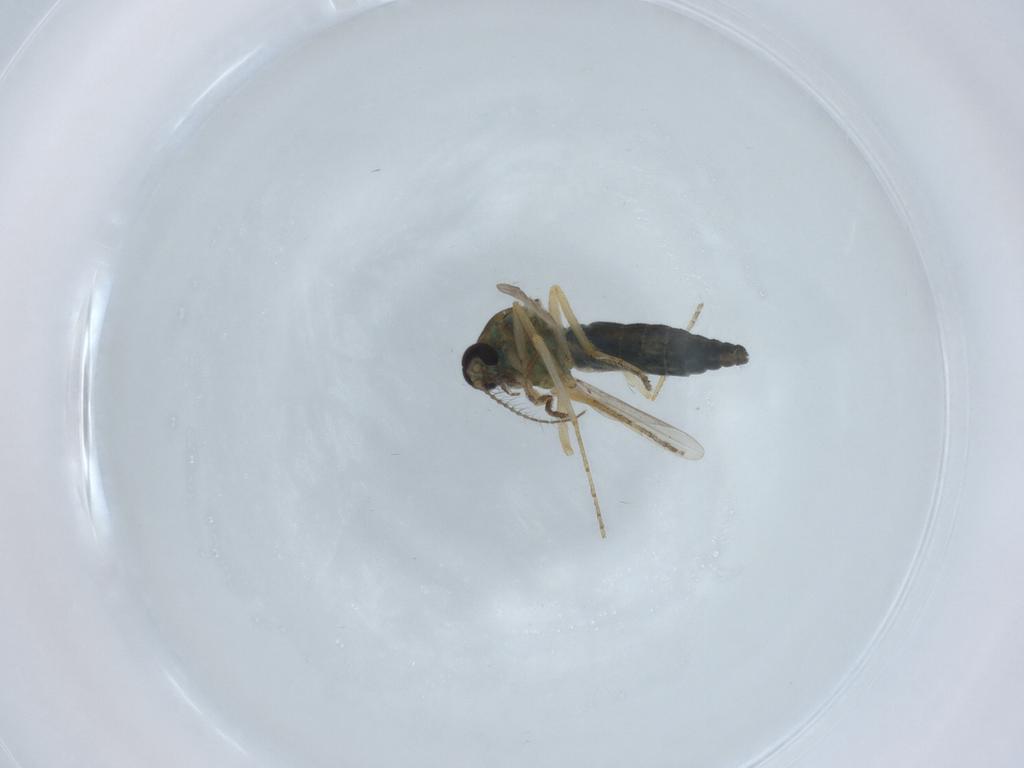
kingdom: Animalia
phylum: Arthropoda
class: Insecta
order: Diptera
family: Ceratopogonidae
